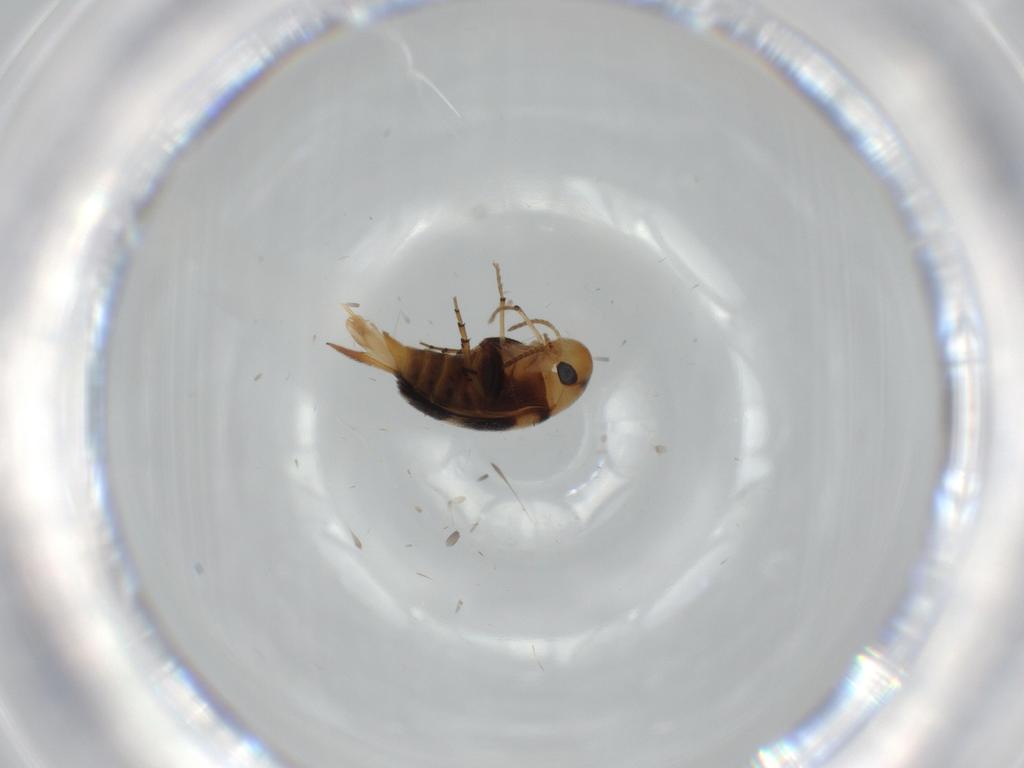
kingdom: Animalia
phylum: Arthropoda
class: Insecta
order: Coleoptera
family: Mordellidae
